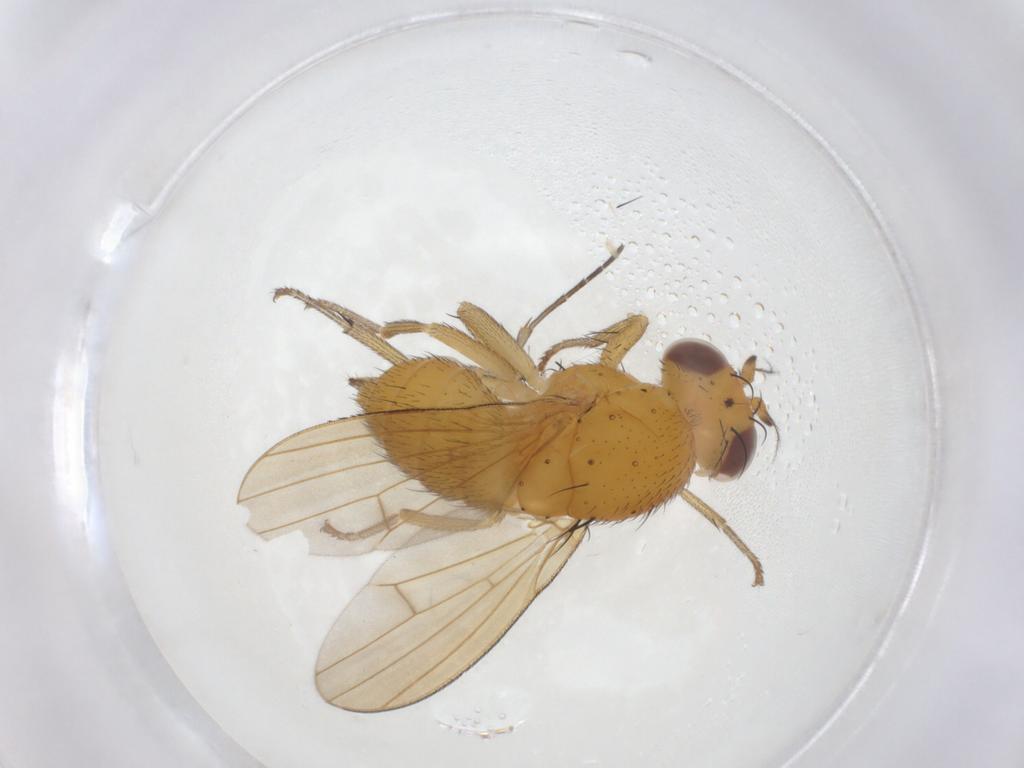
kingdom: Animalia
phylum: Arthropoda
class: Insecta
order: Diptera
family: Lauxaniidae
